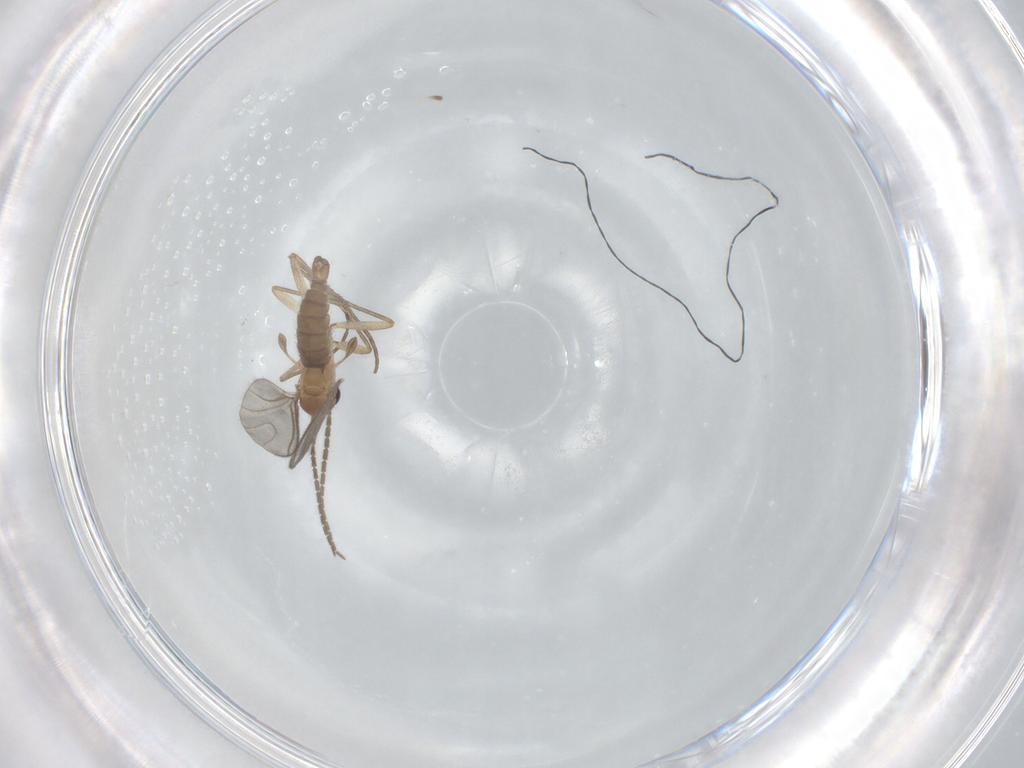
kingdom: Animalia
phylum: Arthropoda
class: Insecta
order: Diptera
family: Sciaridae
